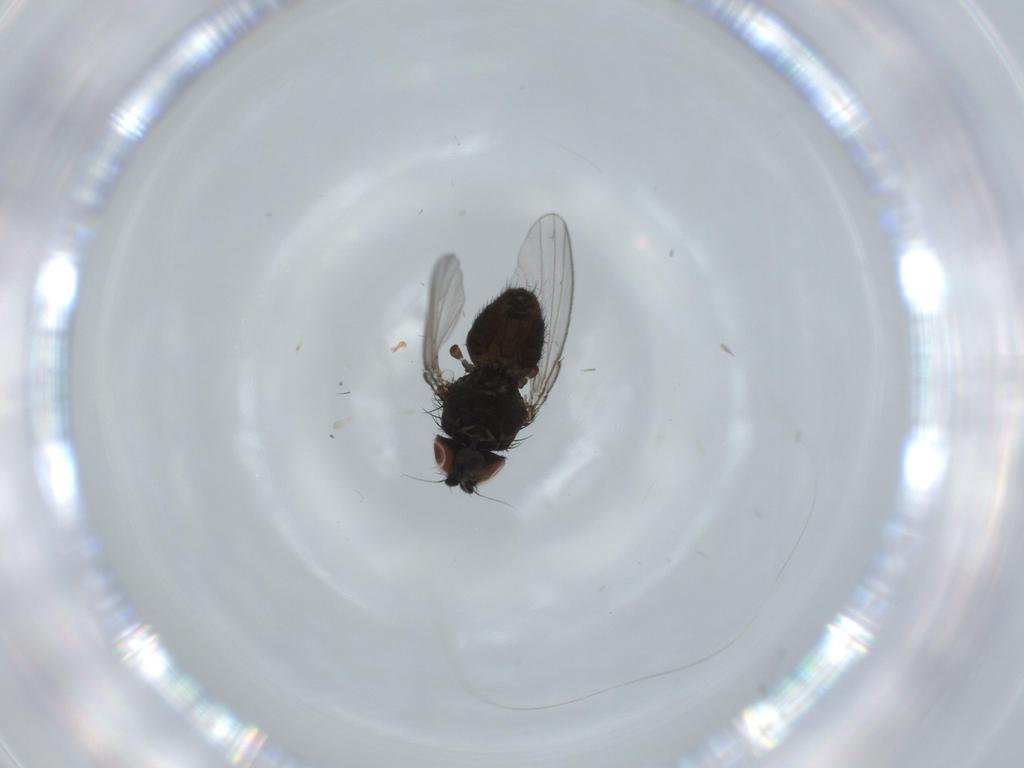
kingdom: Animalia
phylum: Arthropoda
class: Insecta
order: Diptera
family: Milichiidae
